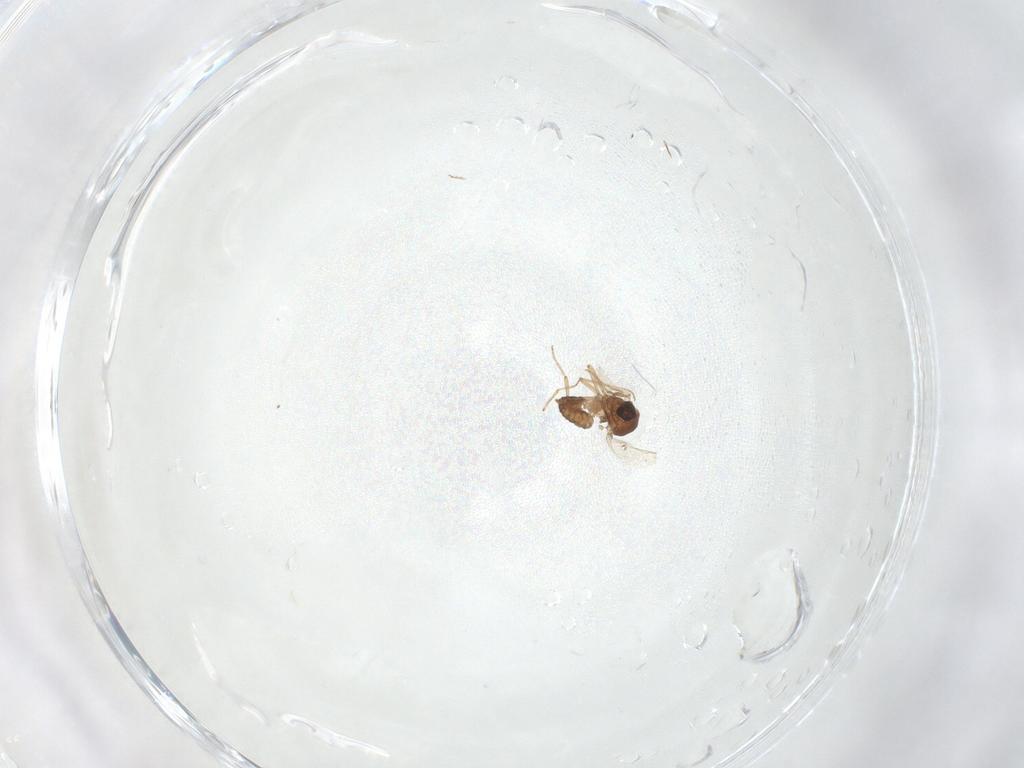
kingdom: Animalia
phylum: Arthropoda
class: Insecta
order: Diptera
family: Ceratopogonidae
